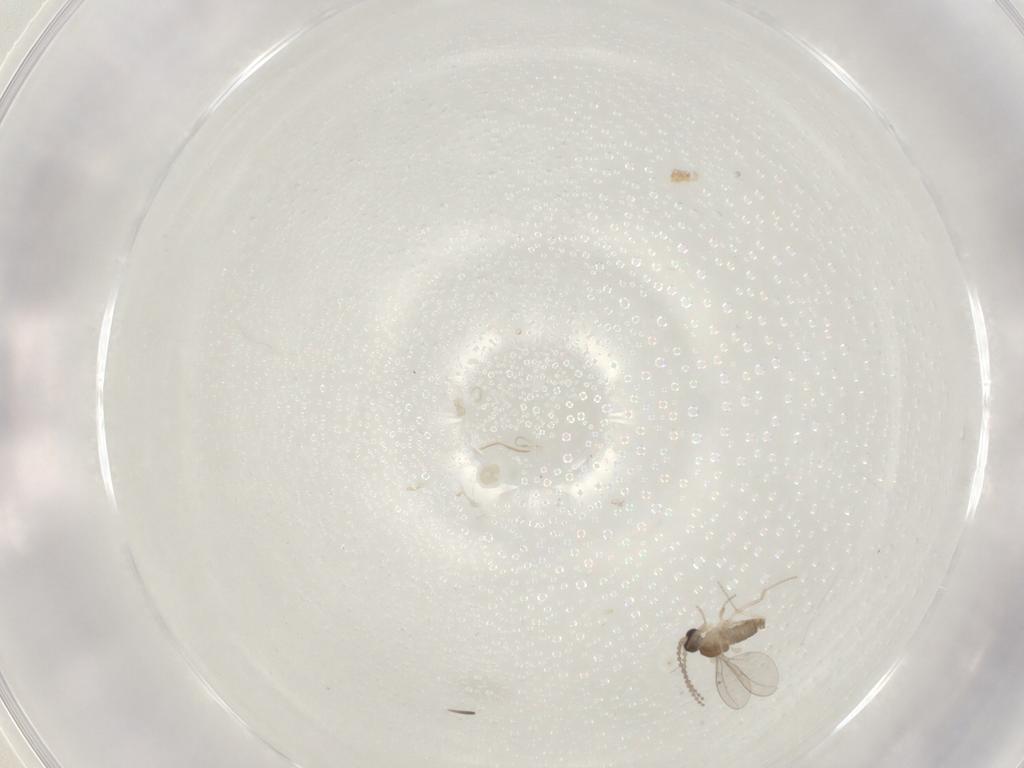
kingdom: Animalia
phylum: Arthropoda
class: Insecta
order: Diptera
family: Cecidomyiidae
